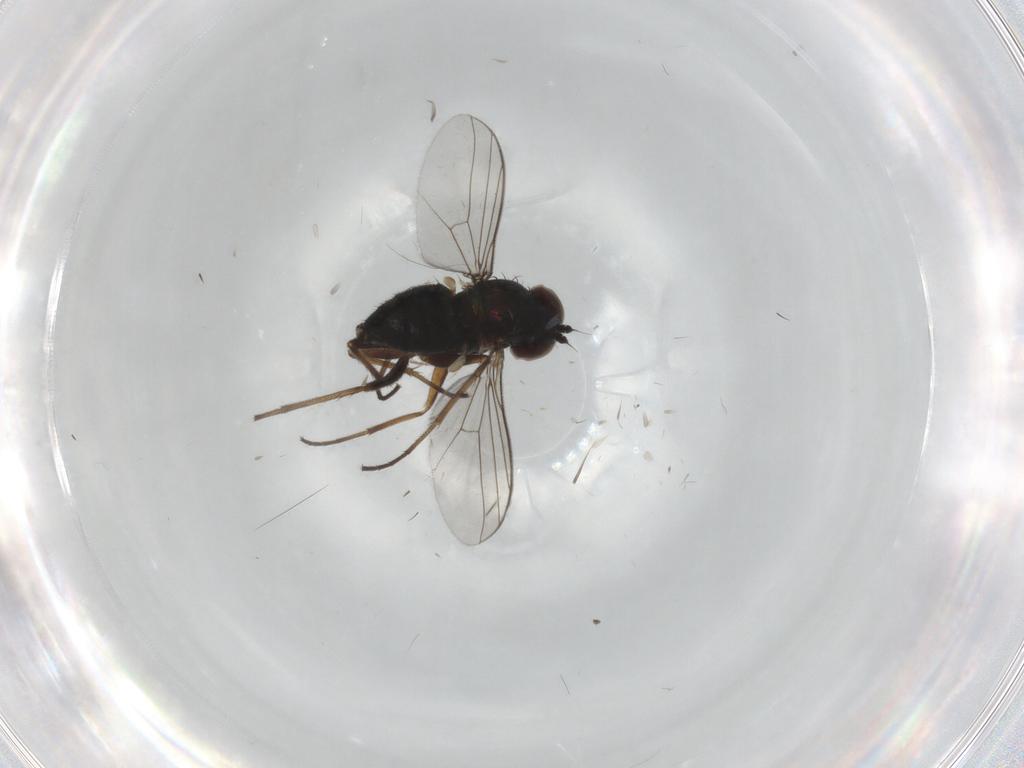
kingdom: Animalia
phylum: Arthropoda
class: Insecta
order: Diptera
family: Dolichopodidae
